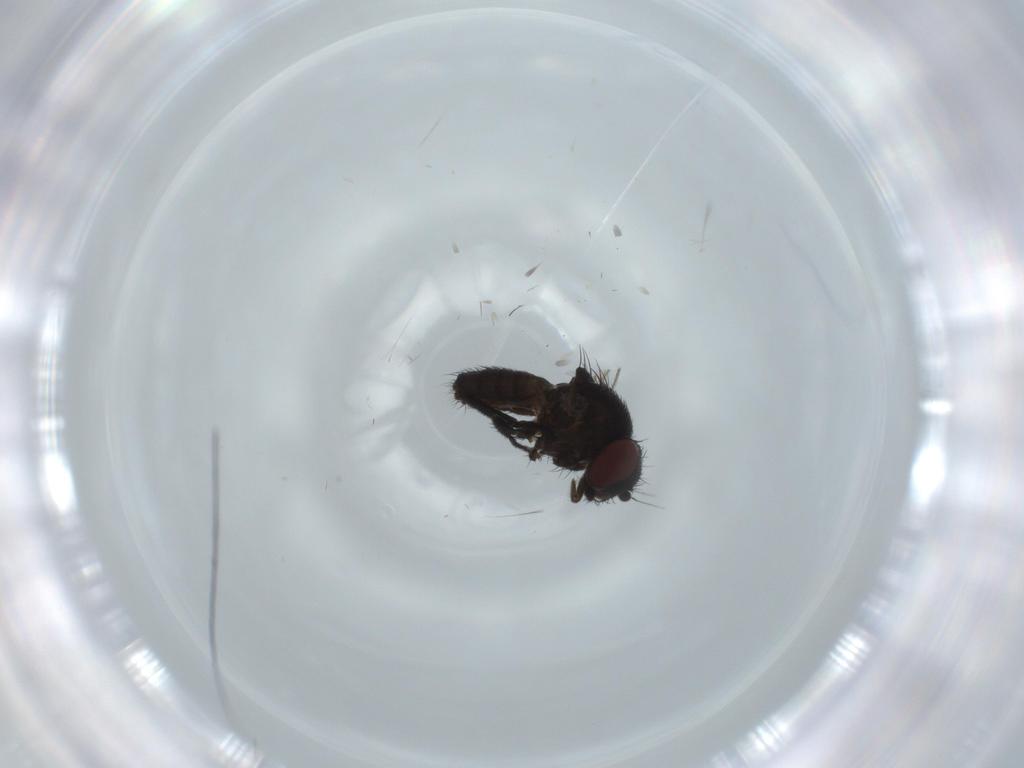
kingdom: Animalia
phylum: Arthropoda
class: Insecta
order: Diptera
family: Milichiidae
